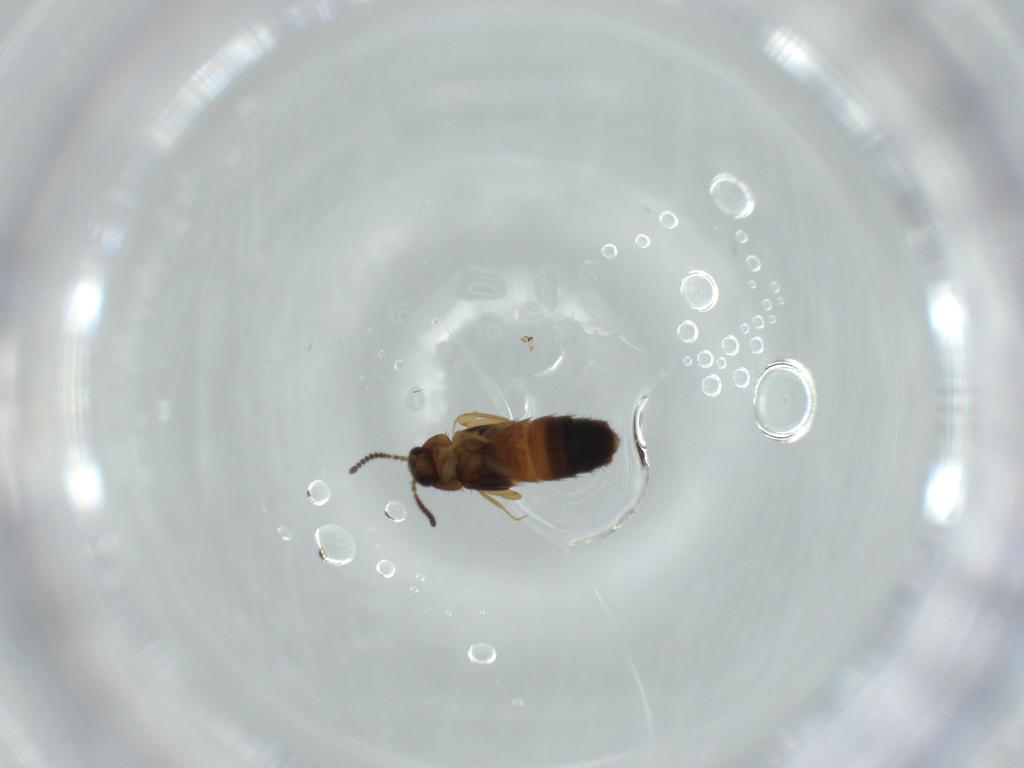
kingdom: Animalia
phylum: Arthropoda
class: Insecta
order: Coleoptera
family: Staphylinidae
